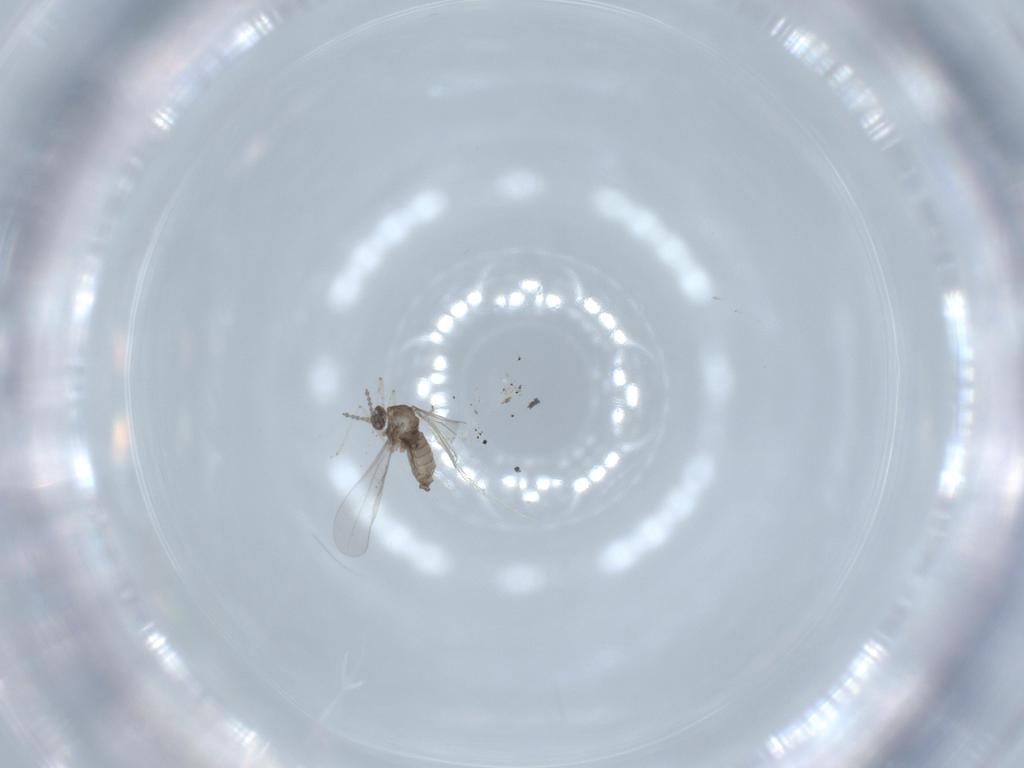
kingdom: Animalia
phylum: Arthropoda
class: Insecta
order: Diptera
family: Cecidomyiidae
